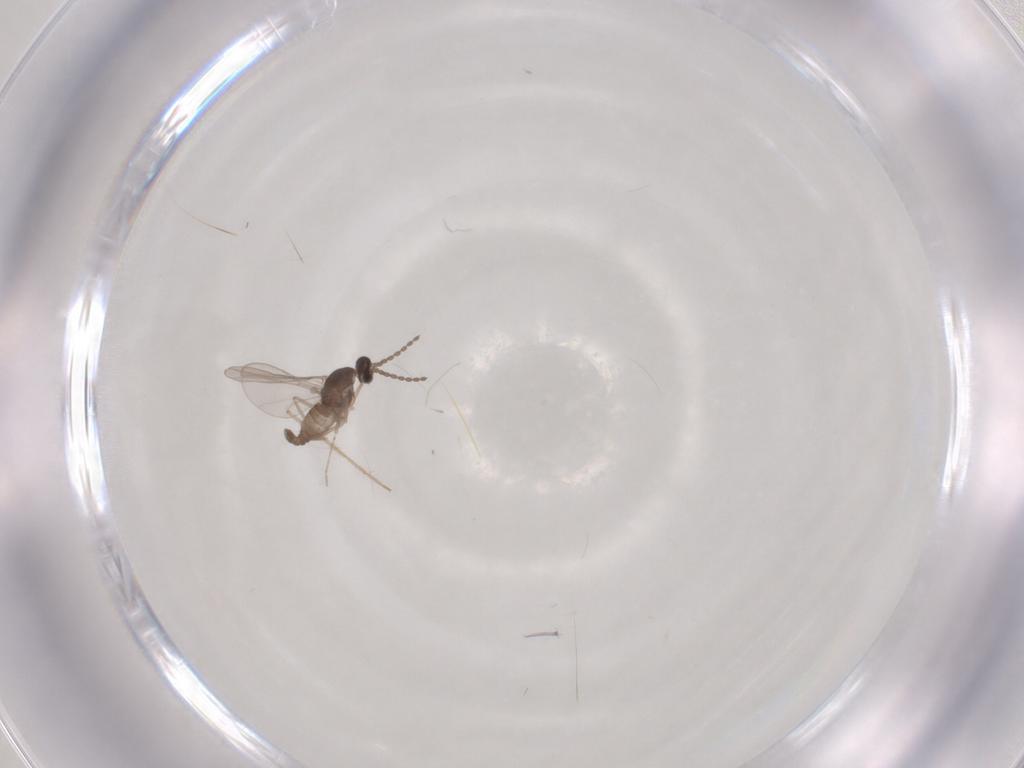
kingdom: Animalia
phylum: Arthropoda
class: Insecta
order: Diptera
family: Cecidomyiidae
